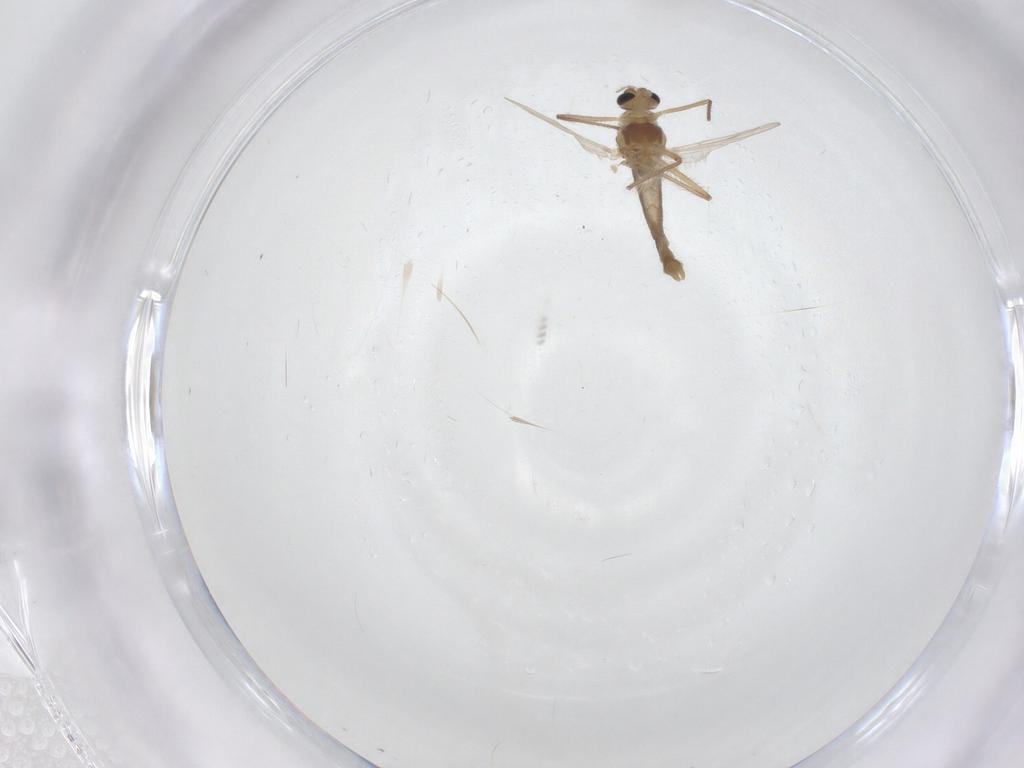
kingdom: Animalia
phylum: Arthropoda
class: Insecta
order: Diptera
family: Chironomidae
